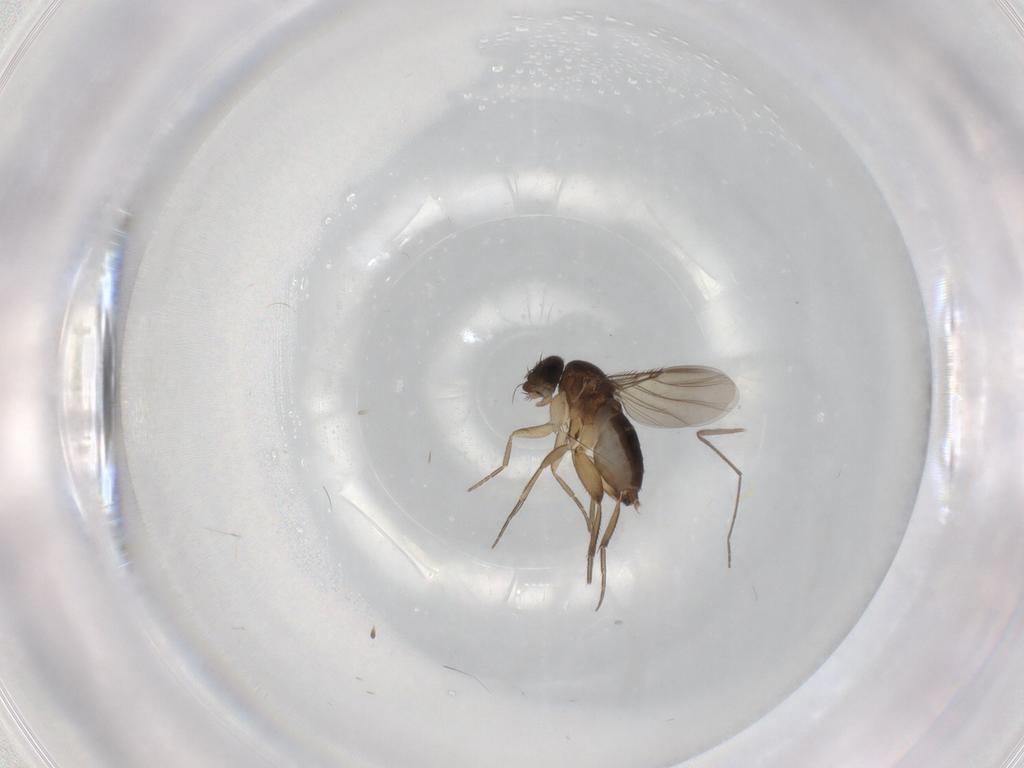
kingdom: Animalia
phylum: Arthropoda
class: Insecta
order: Diptera
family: Chironomidae
